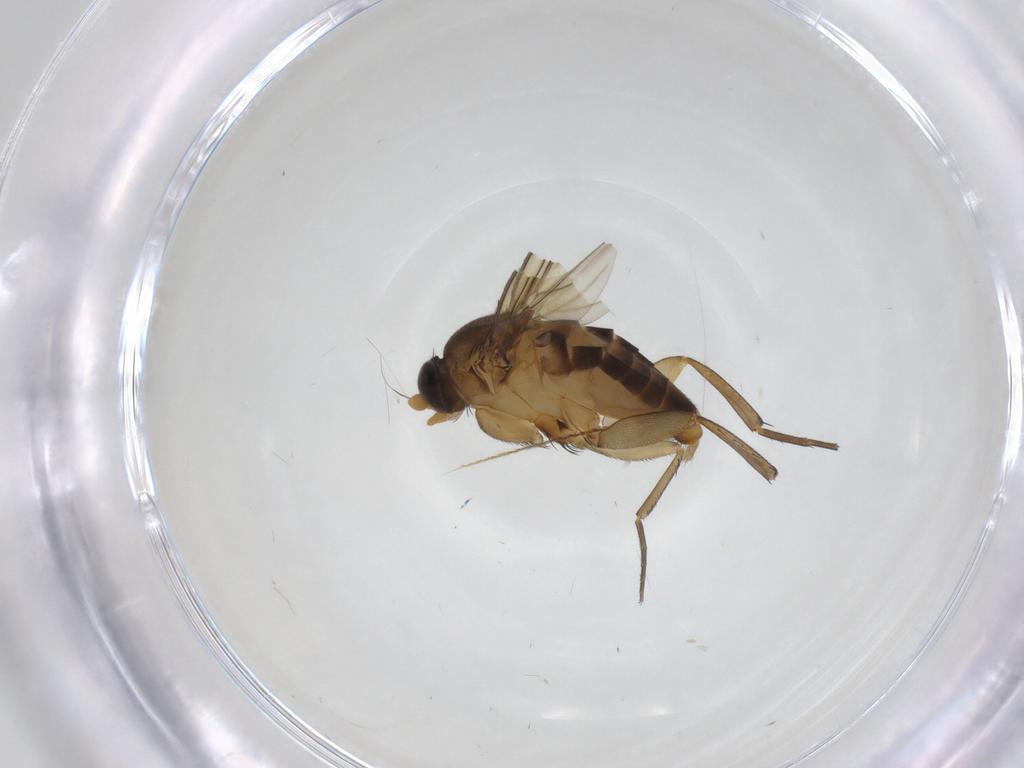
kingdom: Animalia
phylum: Arthropoda
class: Insecta
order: Diptera
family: Phoridae
